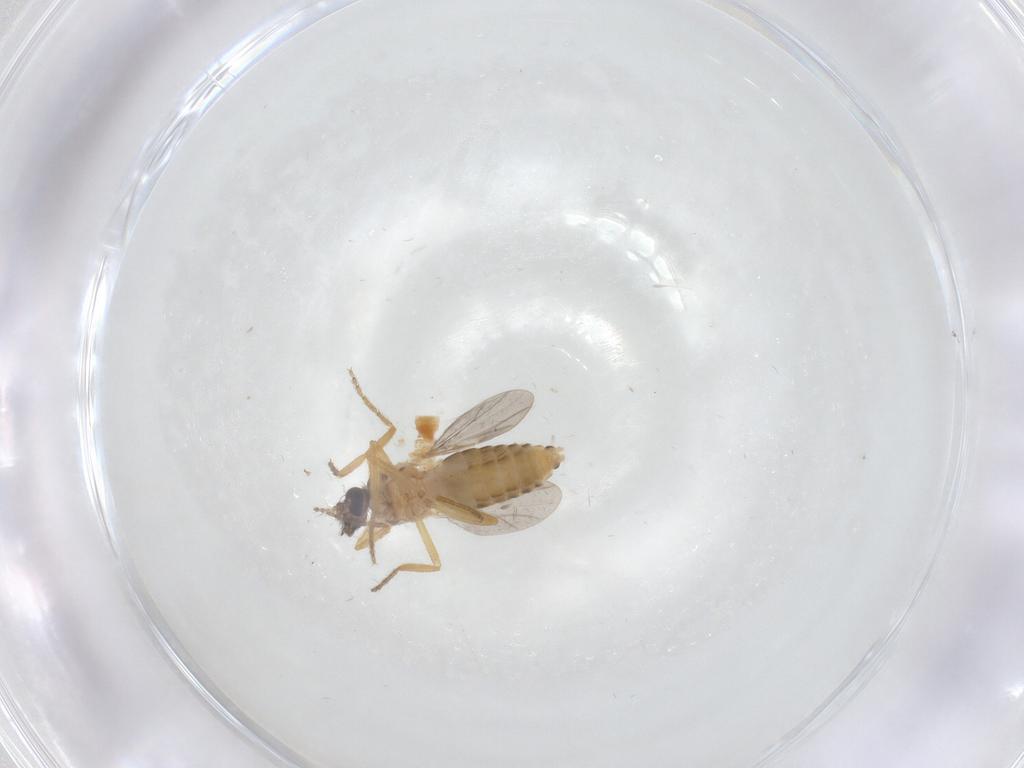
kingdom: Animalia
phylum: Arthropoda
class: Insecta
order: Diptera
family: Ceratopogonidae
